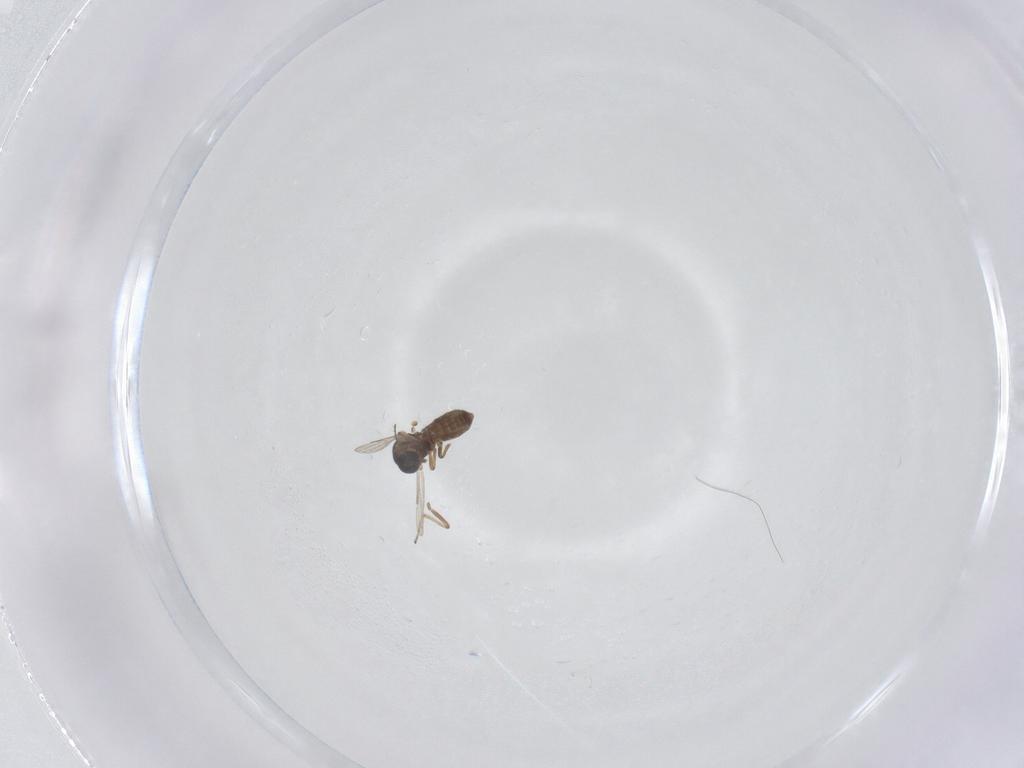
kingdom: Animalia
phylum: Arthropoda
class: Insecta
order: Diptera
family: Ceratopogonidae
